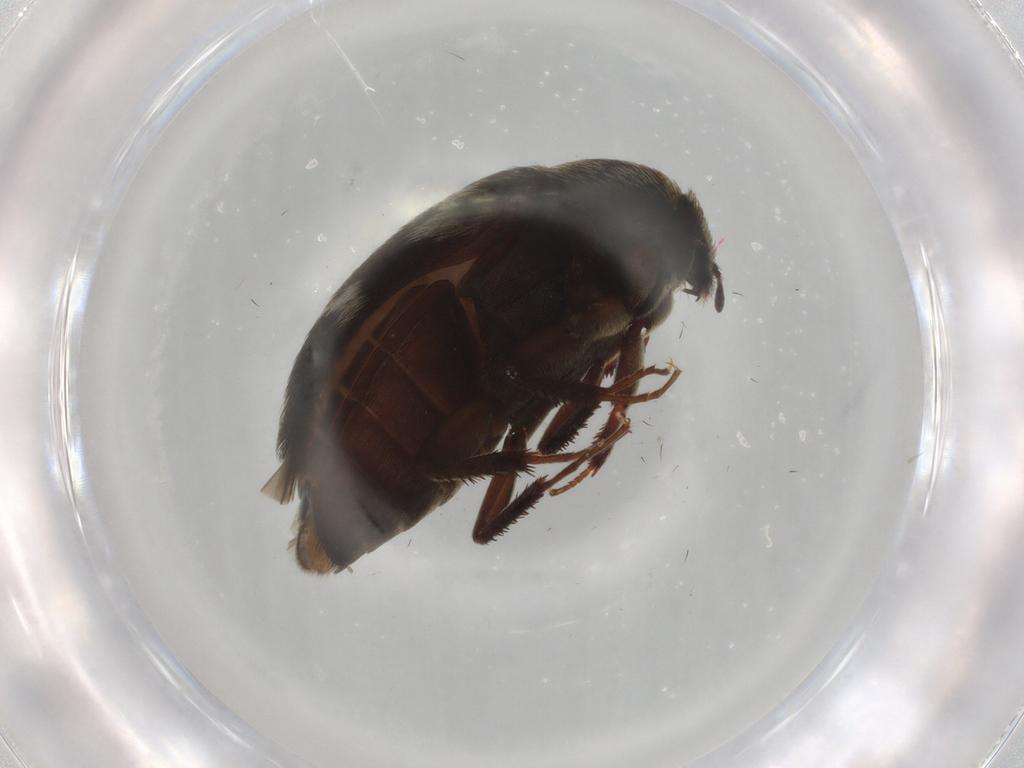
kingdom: Animalia
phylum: Arthropoda
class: Insecta
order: Coleoptera
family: Dermestidae
